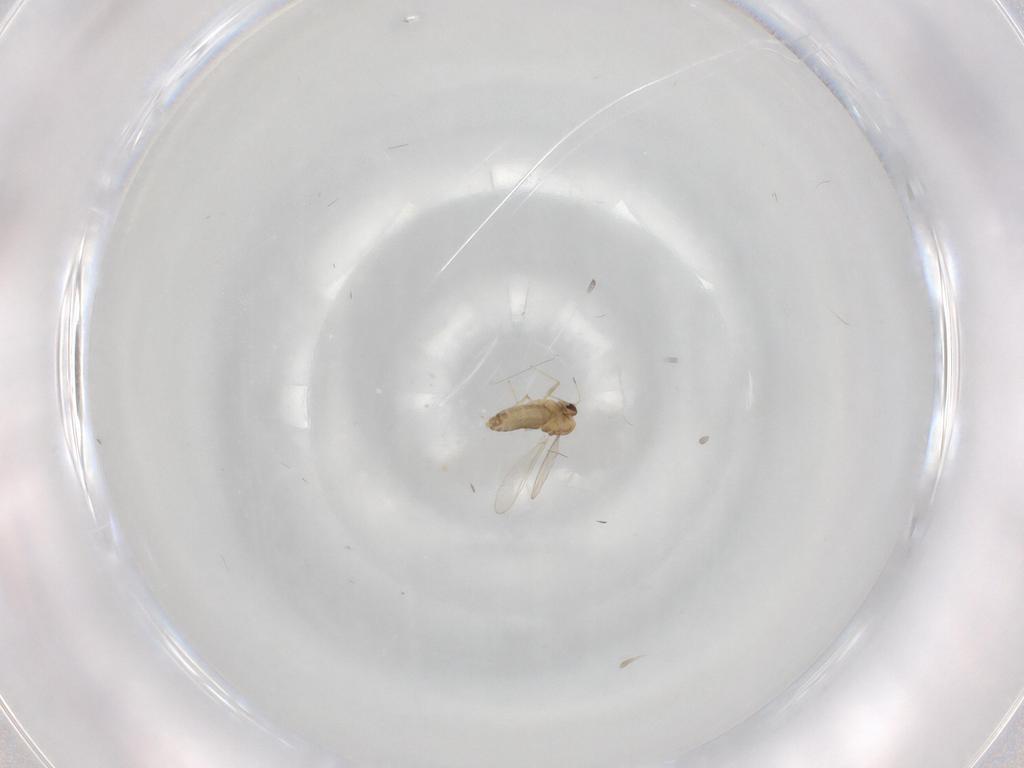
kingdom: Animalia
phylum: Arthropoda
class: Insecta
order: Diptera
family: Chironomidae
